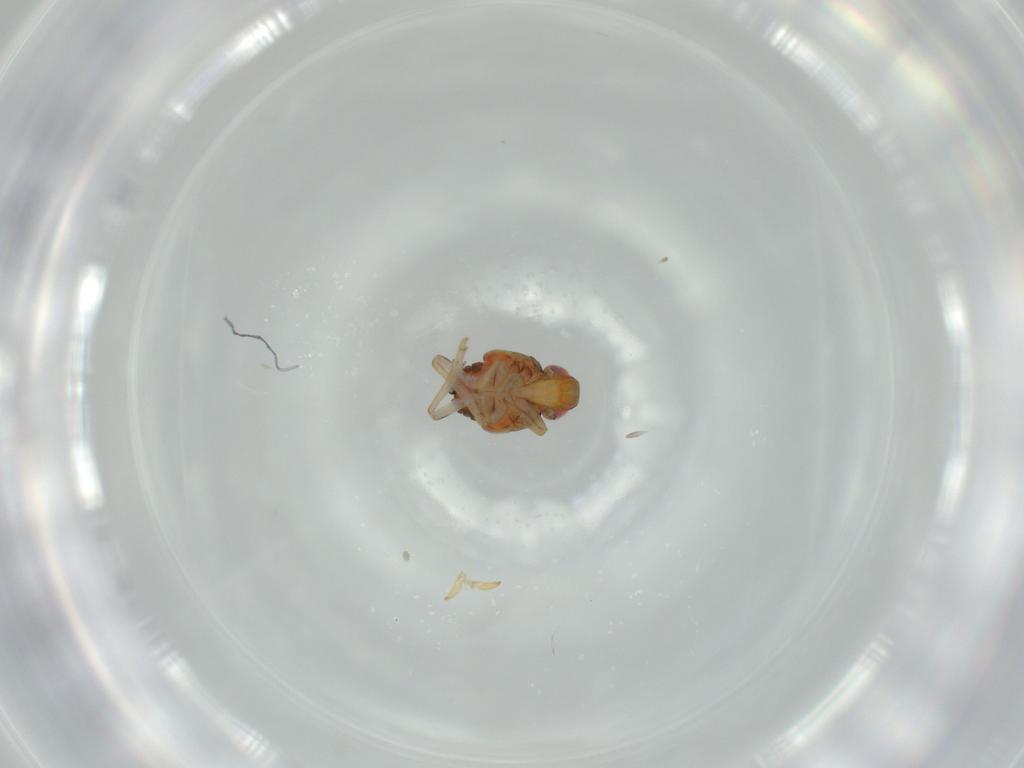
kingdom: Animalia
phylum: Arthropoda
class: Insecta
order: Hemiptera
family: Issidae
